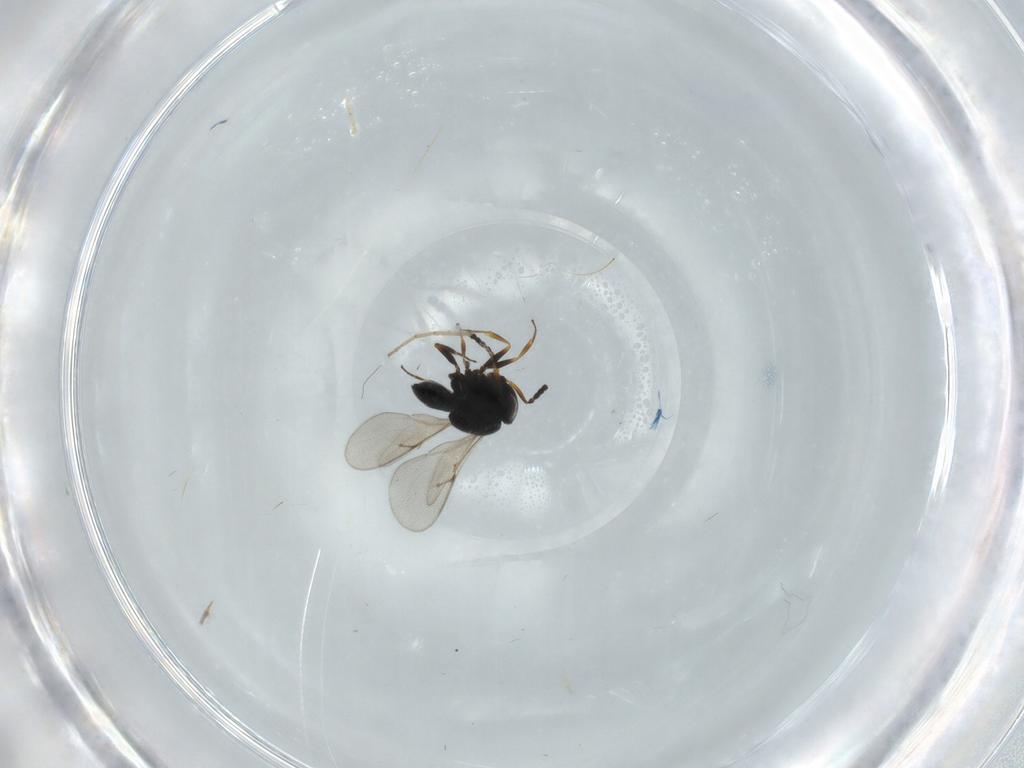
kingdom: Animalia
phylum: Arthropoda
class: Insecta
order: Hymenoptera
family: Scelionidae
